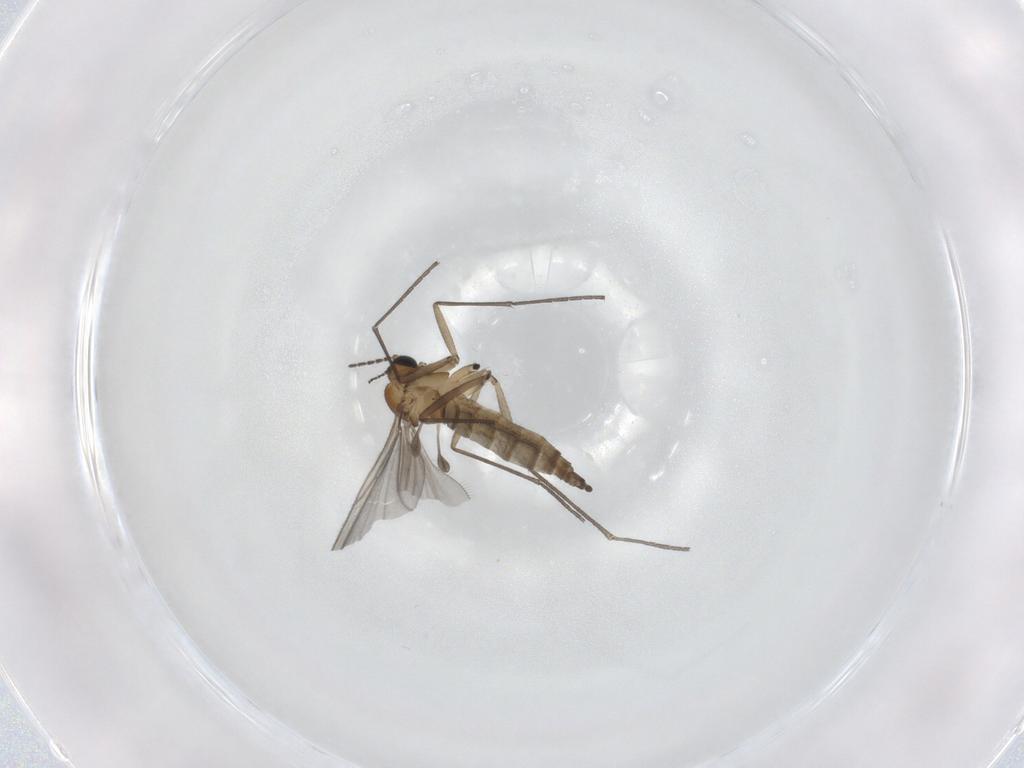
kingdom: Animalia
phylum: Arthropoda
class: Insecta
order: Diptera
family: Sciaridae
